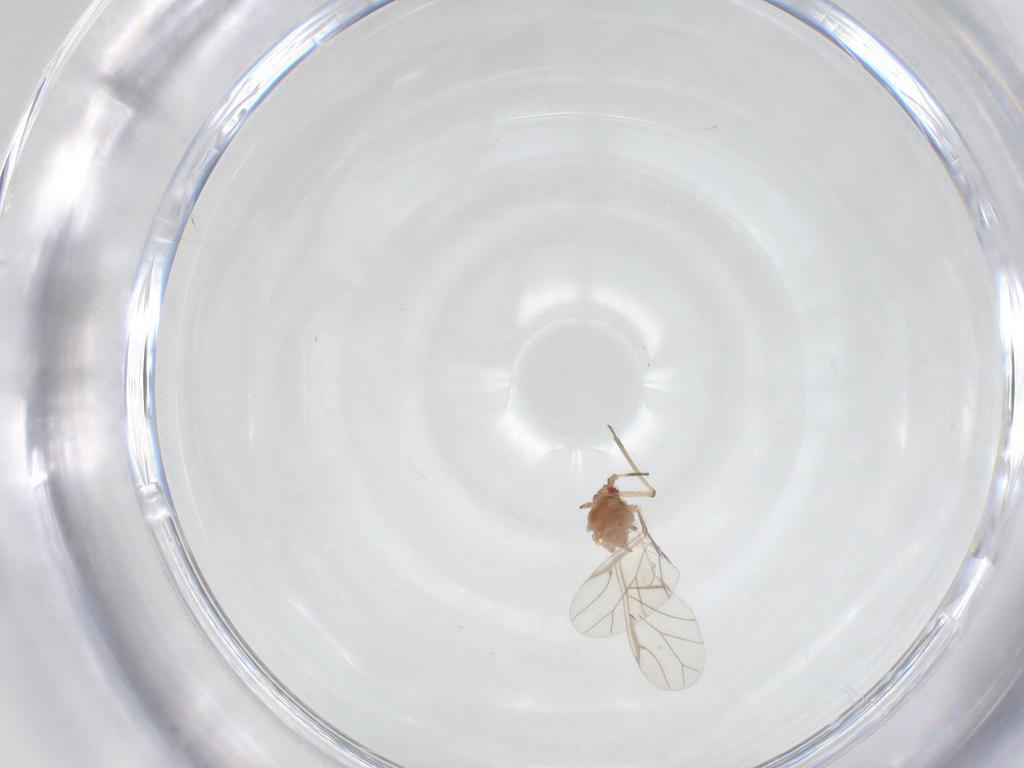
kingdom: Animalia
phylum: Arthropoda
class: Insecta
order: Hemiptera
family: Aphididae
